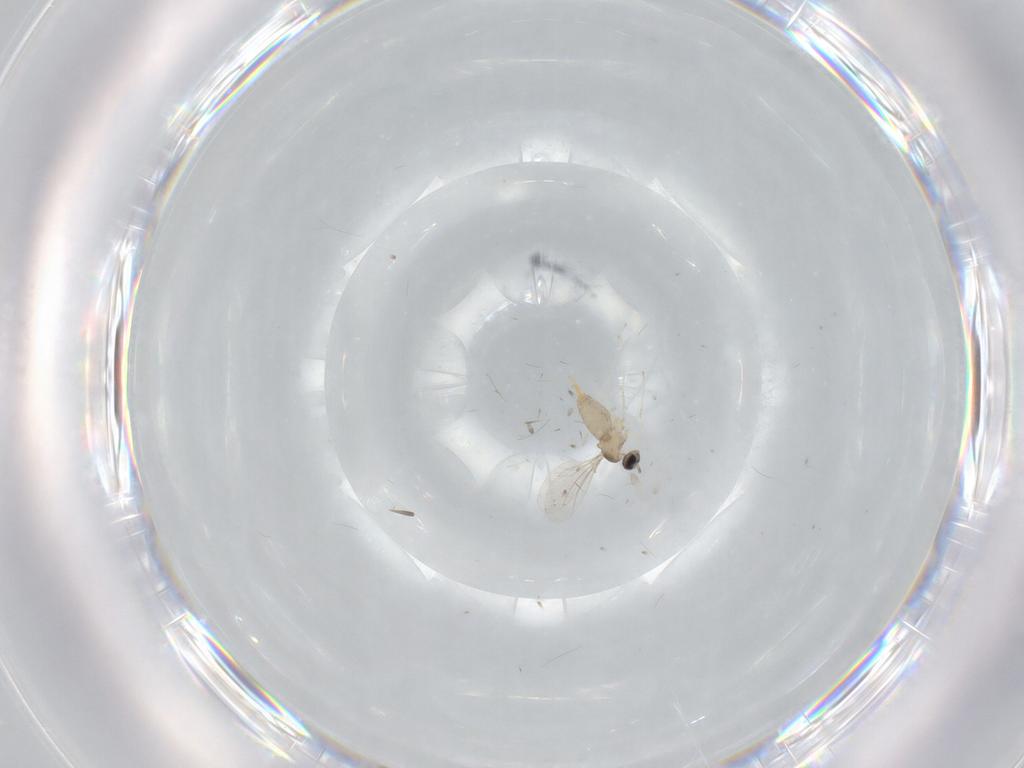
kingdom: Animalia
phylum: Arthropoda
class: Insecta
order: Diptera
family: Cecidomyiidae
